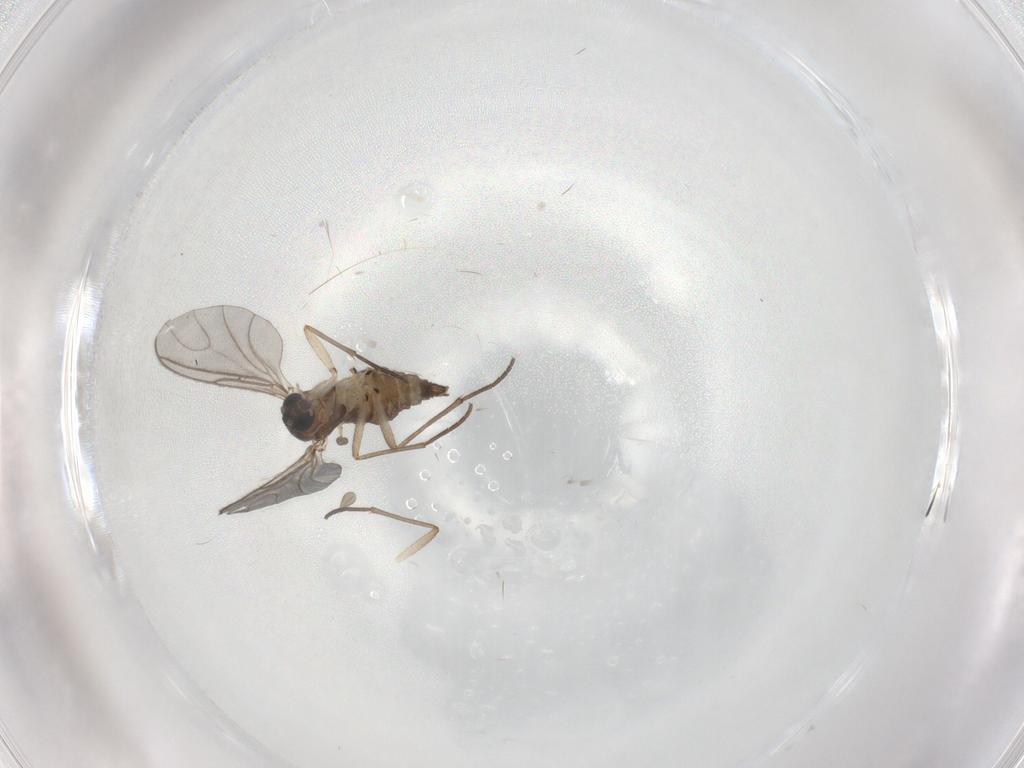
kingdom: Animalia
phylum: Arthropoda
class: Insecta
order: Diptera
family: Sciaridae
